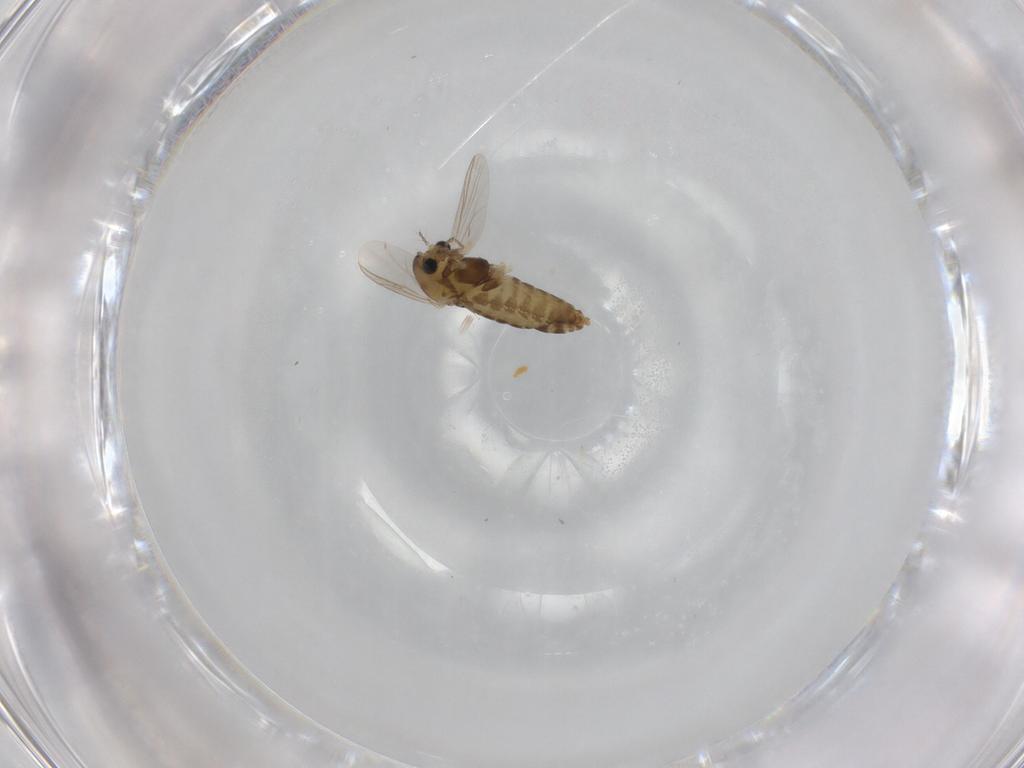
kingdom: Animalia
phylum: Arthropoda
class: Insecta
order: Diptera
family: Chironomidae
